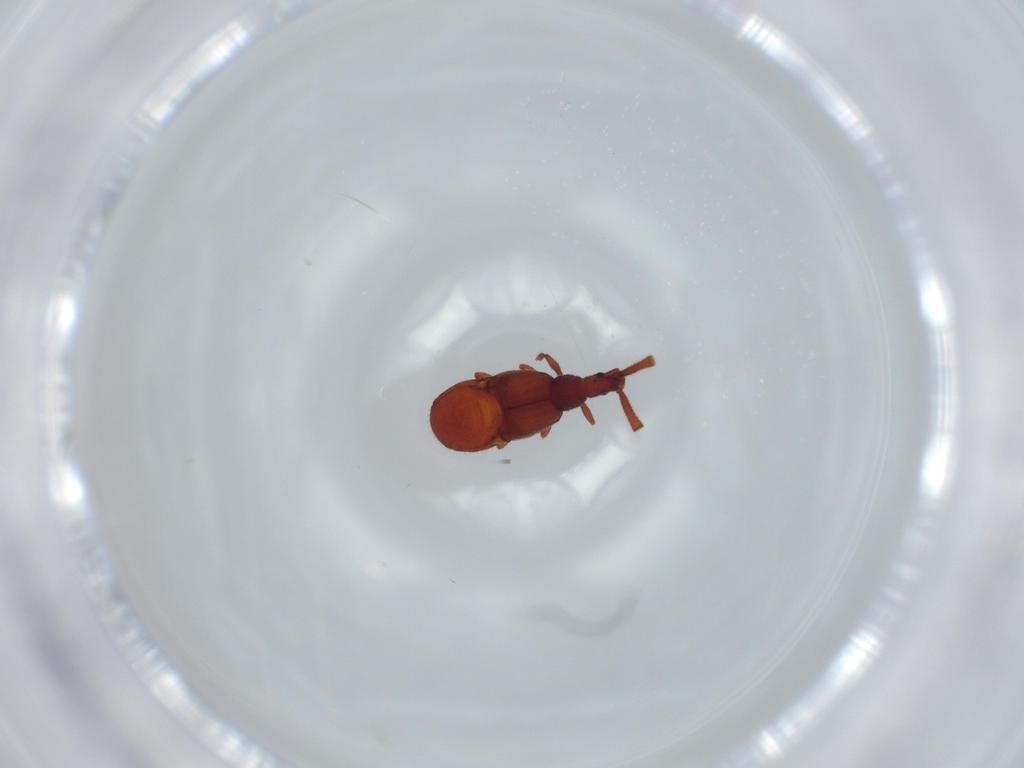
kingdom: Animalia
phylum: Arthropoda
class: Insecta
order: Coleoptera
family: Staphylinidae
